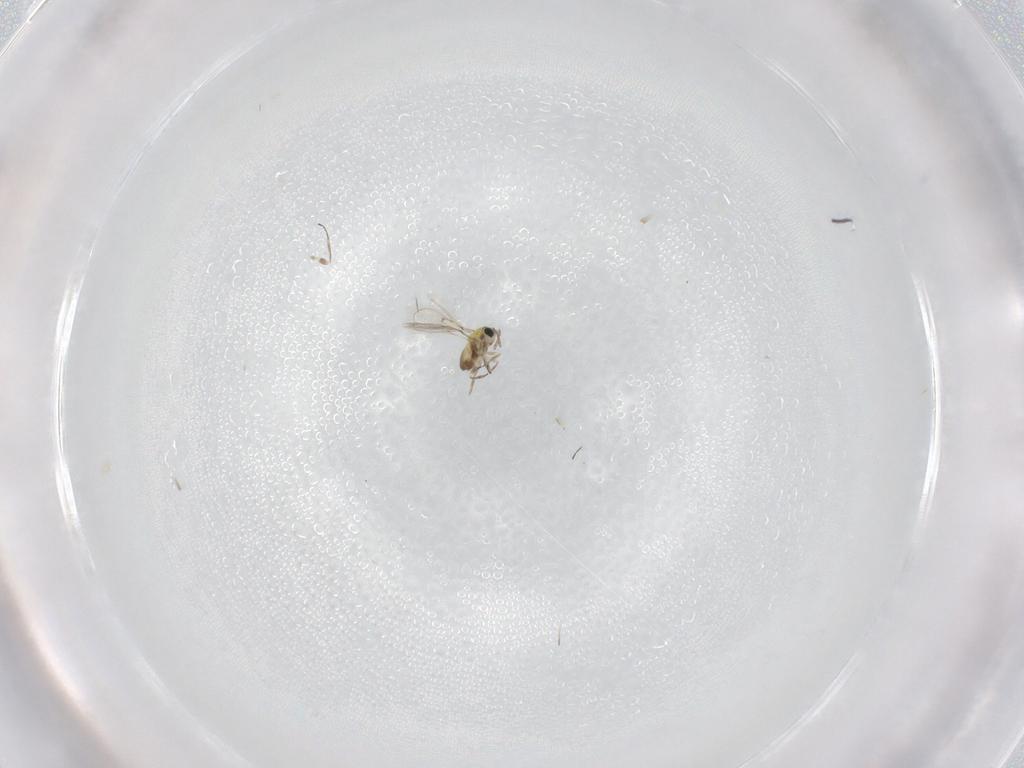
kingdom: Animalia
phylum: Arthropoda
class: Insecta
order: Hymenoptera
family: Trichogrammatidae
